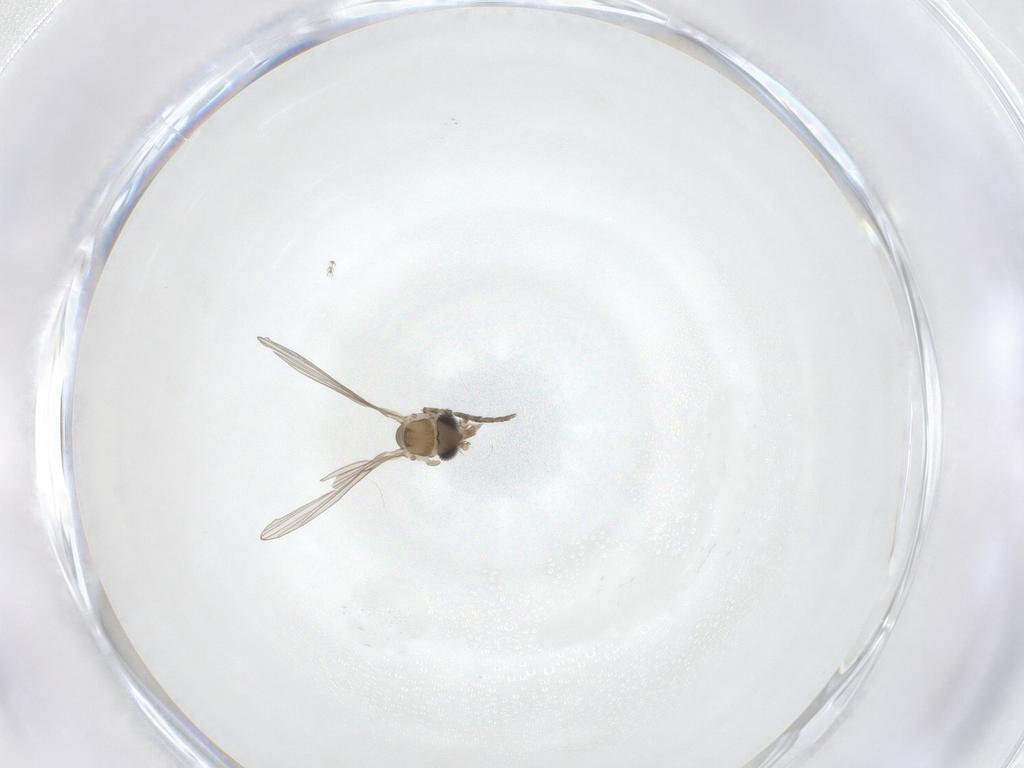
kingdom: Animalia
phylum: Arthropoda
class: Insecta
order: Diptera
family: Psychodidae
